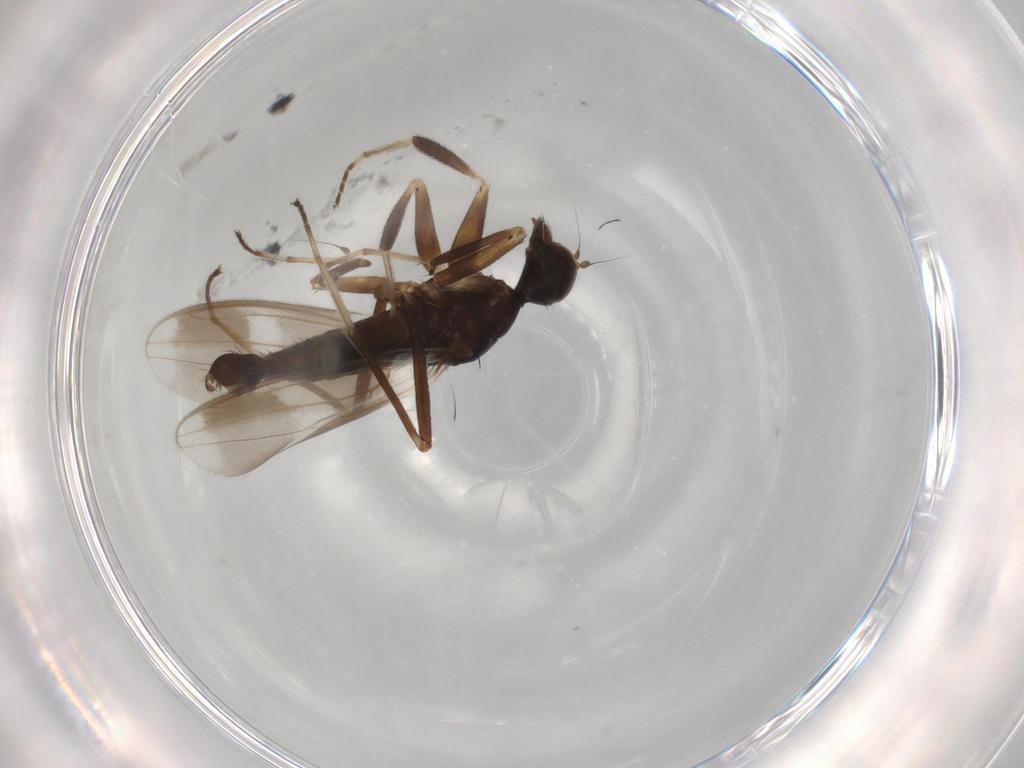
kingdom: Animalia
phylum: Arthropoda
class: Insecta
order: Diptera
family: Hybotidae
